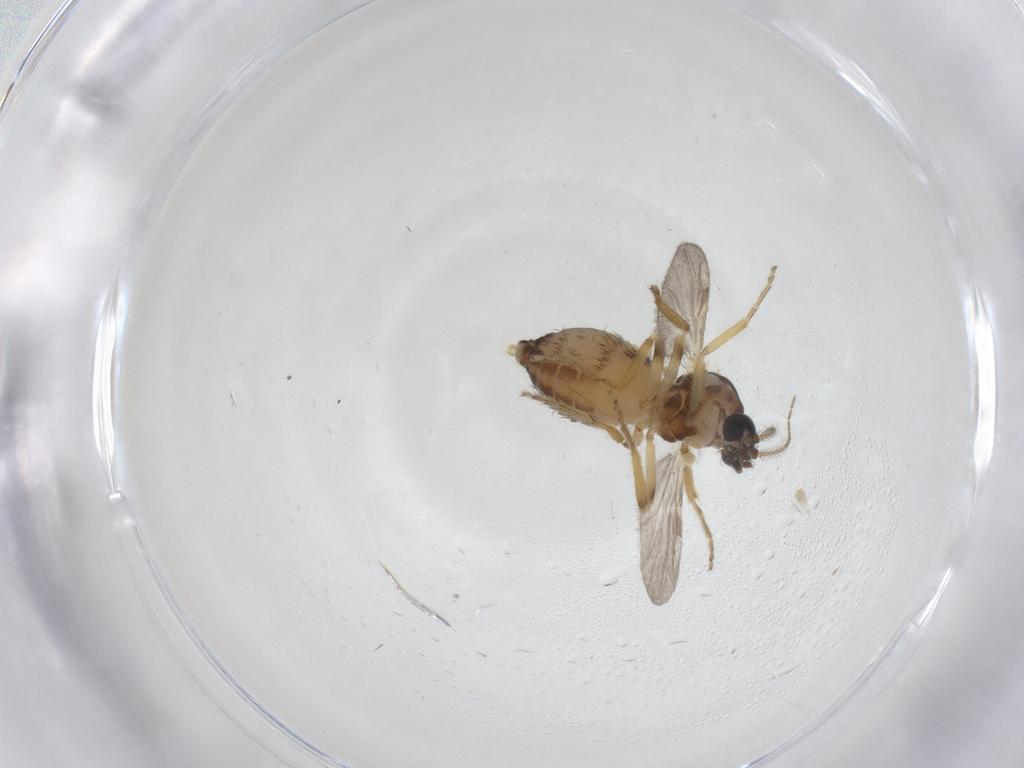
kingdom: Animalia
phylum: Arthropoda
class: Insecta
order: Diptera
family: Ceratopogonidae
